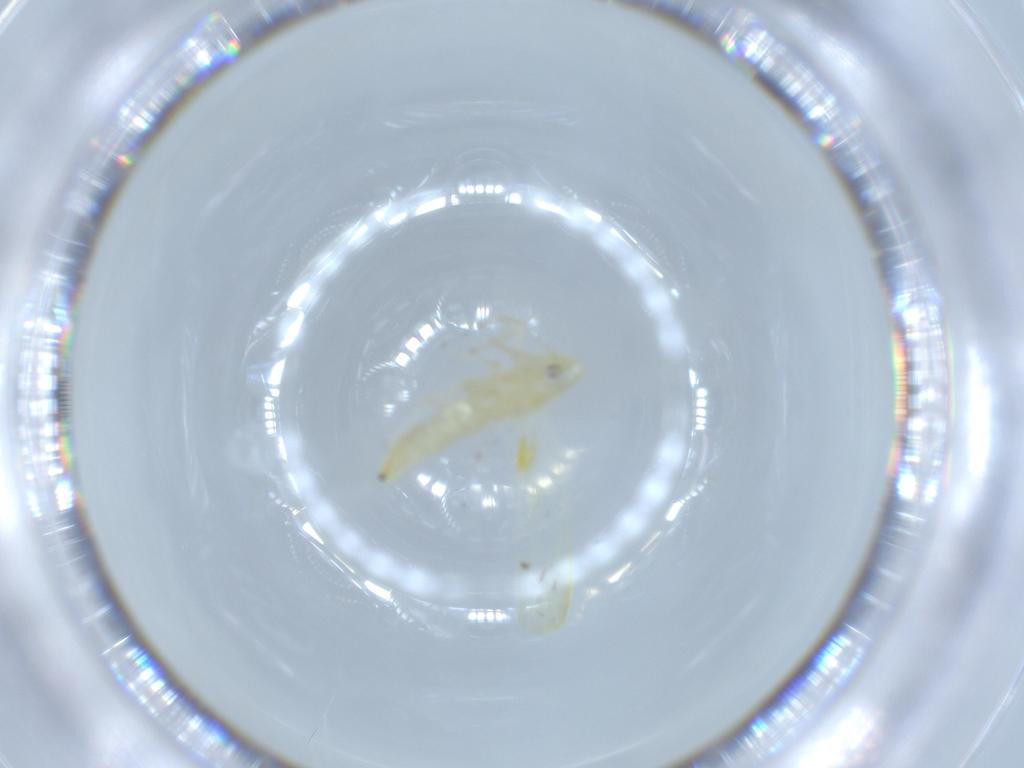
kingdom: Animalia
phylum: Arthropoda
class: Insecta
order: Hemiptera
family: Cicadellidae
